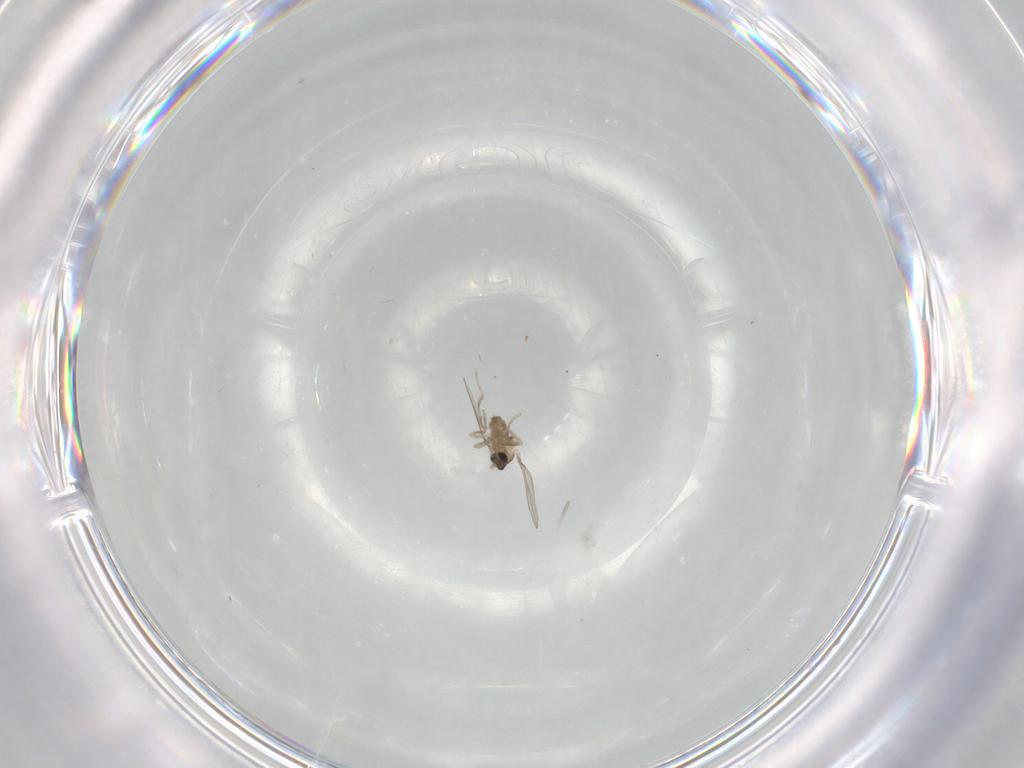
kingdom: Animalia
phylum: Arthropoda
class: Insecta
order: Diptera
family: Cecidomyiidae
